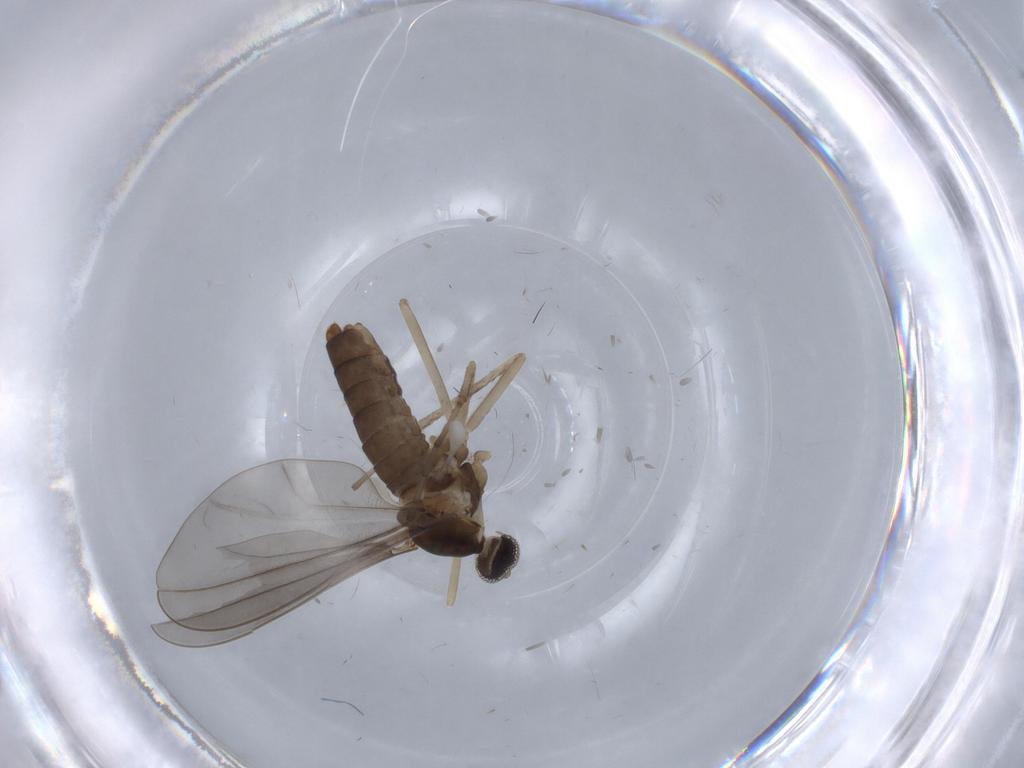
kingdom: Animalia
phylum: Arthropoda
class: Insecta
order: Diptera
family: Cecidomyiidae
